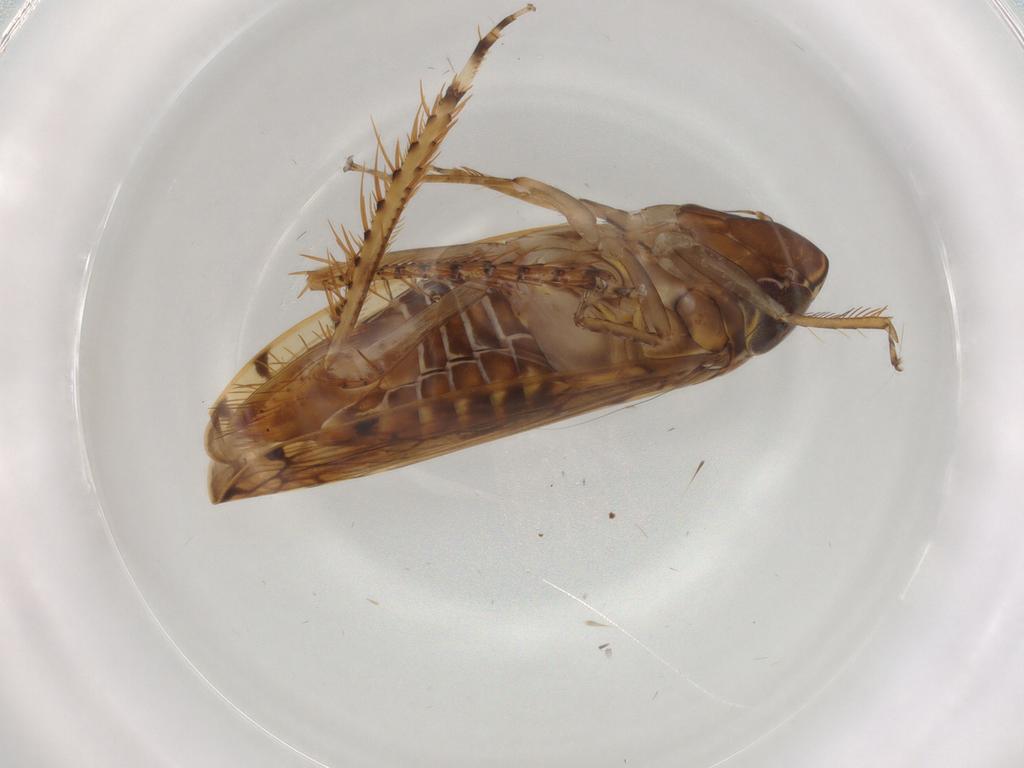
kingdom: Animalia
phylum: Arthropoda
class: Insecta
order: Hemiptera
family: Cicadellidae
